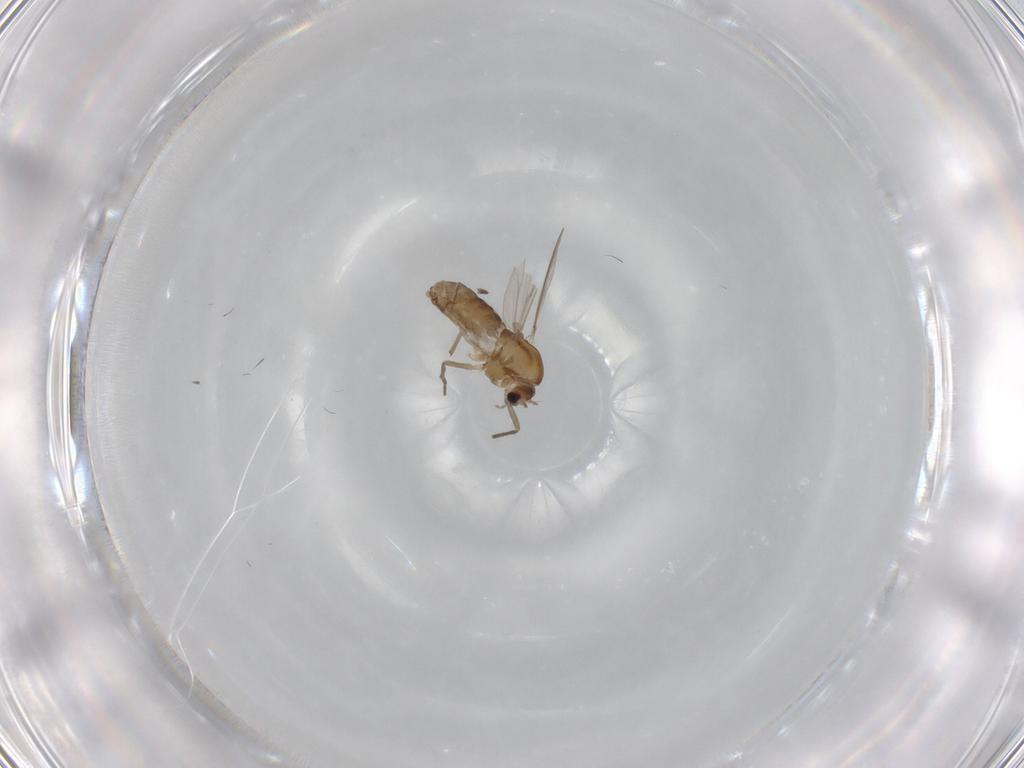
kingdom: Animalia
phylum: Arthropoda
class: Insecta
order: Diptera
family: Chironomidae
